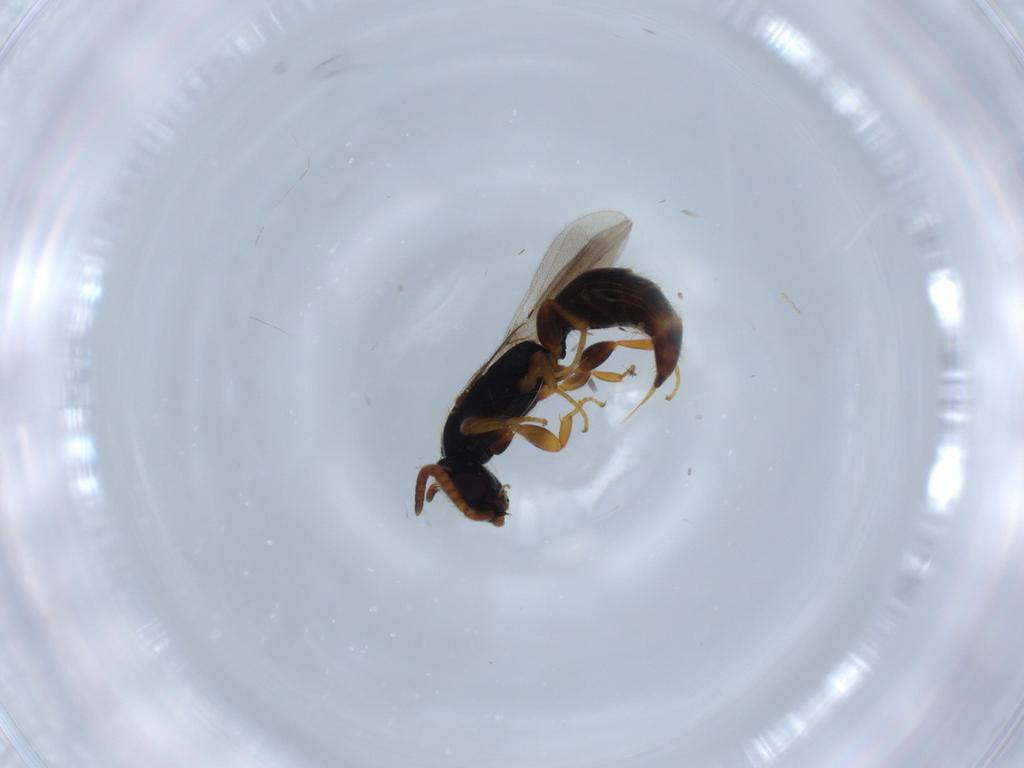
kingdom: Animalia
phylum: Arthropoda
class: Insecta
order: Hymenoptera
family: Bethylidae
